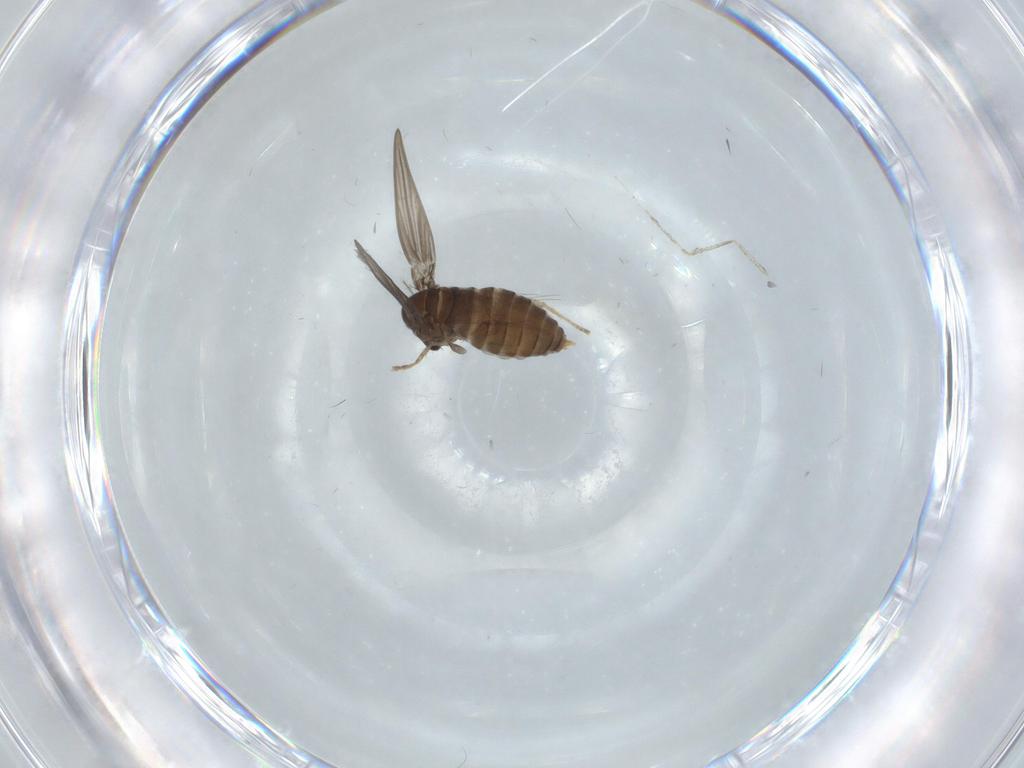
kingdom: Animalia
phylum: Arthropoda
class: Insecta
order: Diptera
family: Psychodidae
